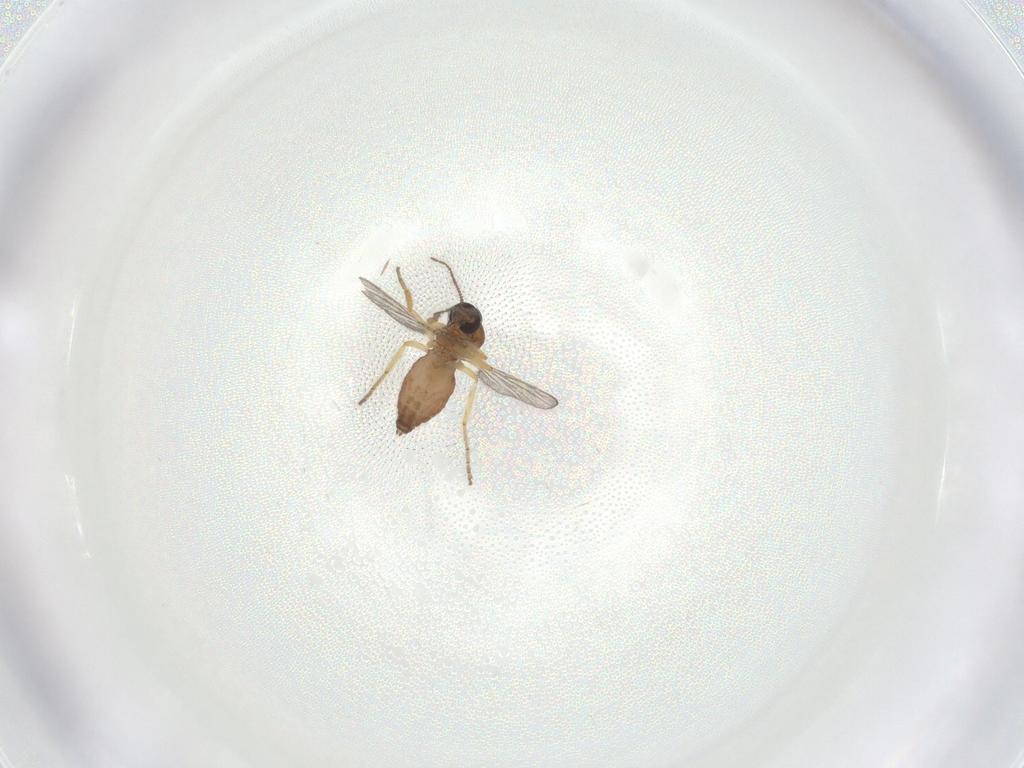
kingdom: Animalia
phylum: Arthropoda
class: Insecta
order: Diptera
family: Ceratopogonidae
